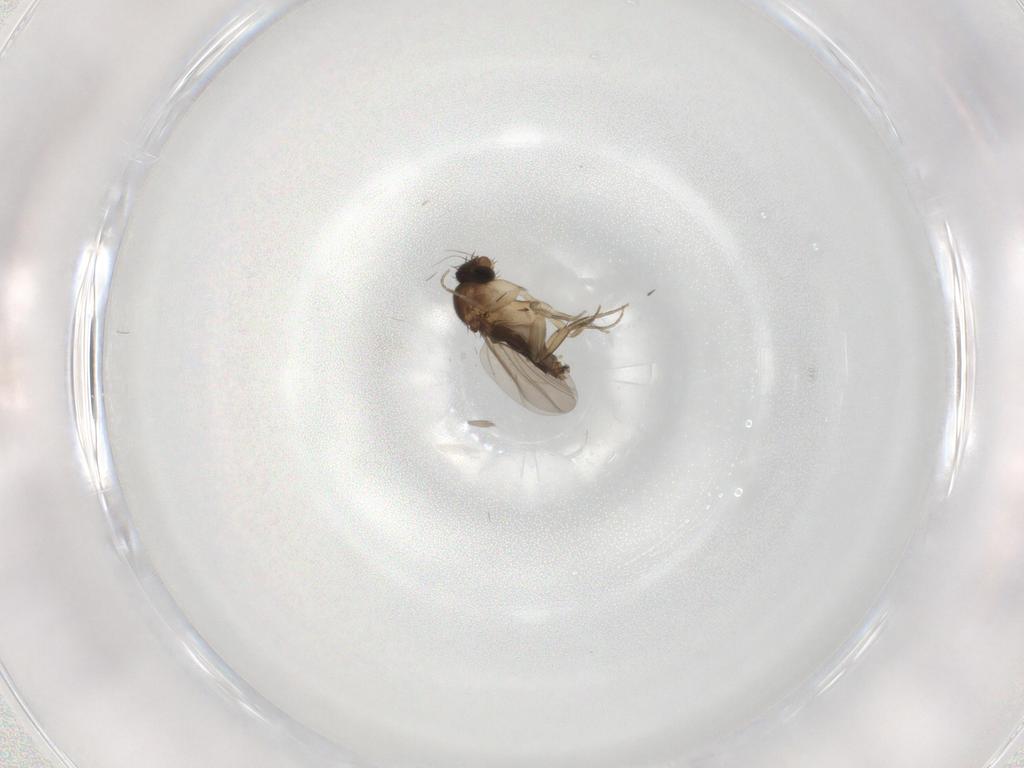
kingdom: Animalia
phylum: Arthropoda
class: Insecta
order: Diptera
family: Phoridae
